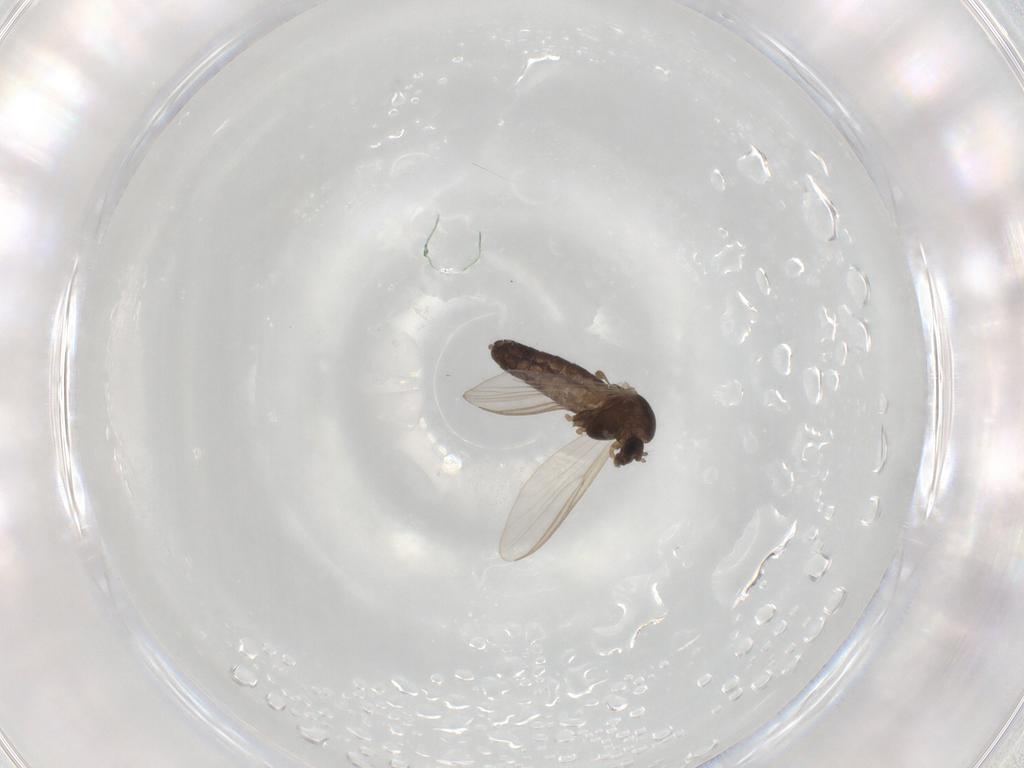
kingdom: Animalia
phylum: Arthropoda
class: Insecta
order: Diptera
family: Chironomidae
